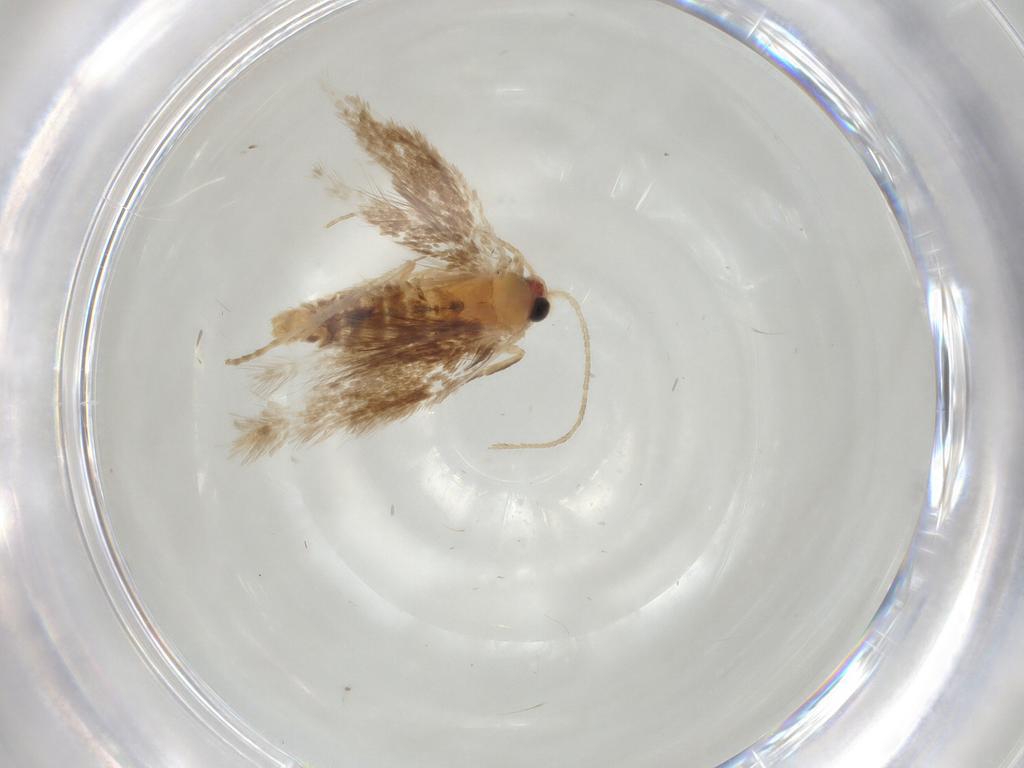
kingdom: Animalia
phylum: Arthropoda
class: Insecta
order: Lepidoptera
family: Nepticulidae
